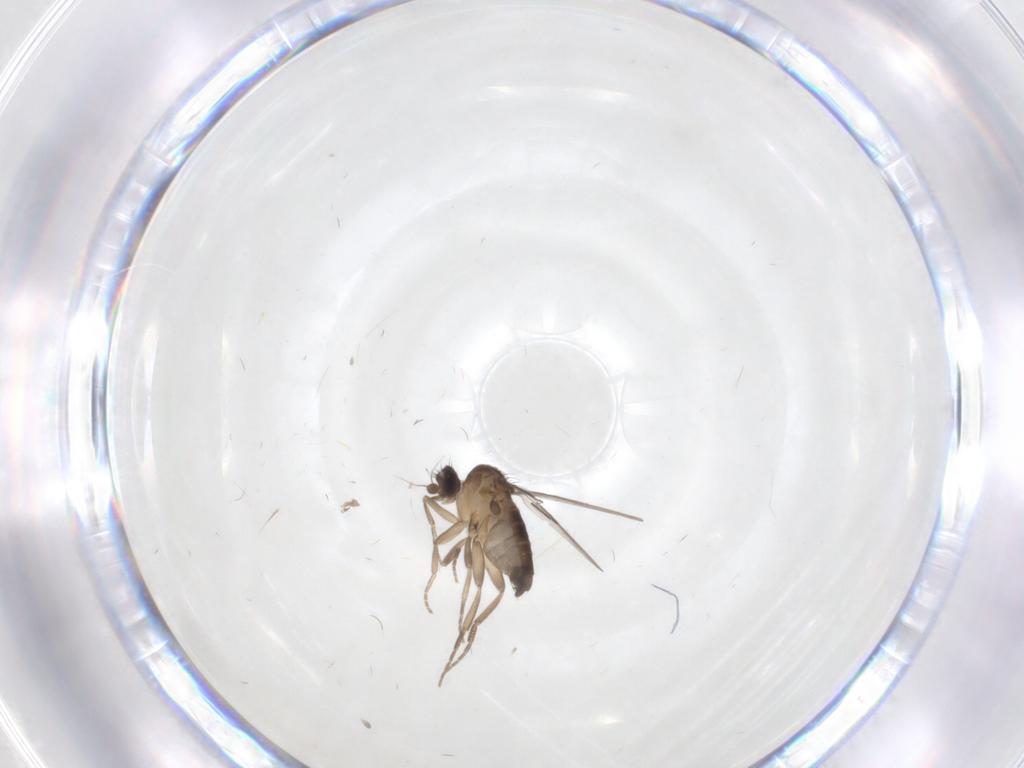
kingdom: Animalia
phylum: Arthropoda
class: Insecta
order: Diptera
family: Phoridae
